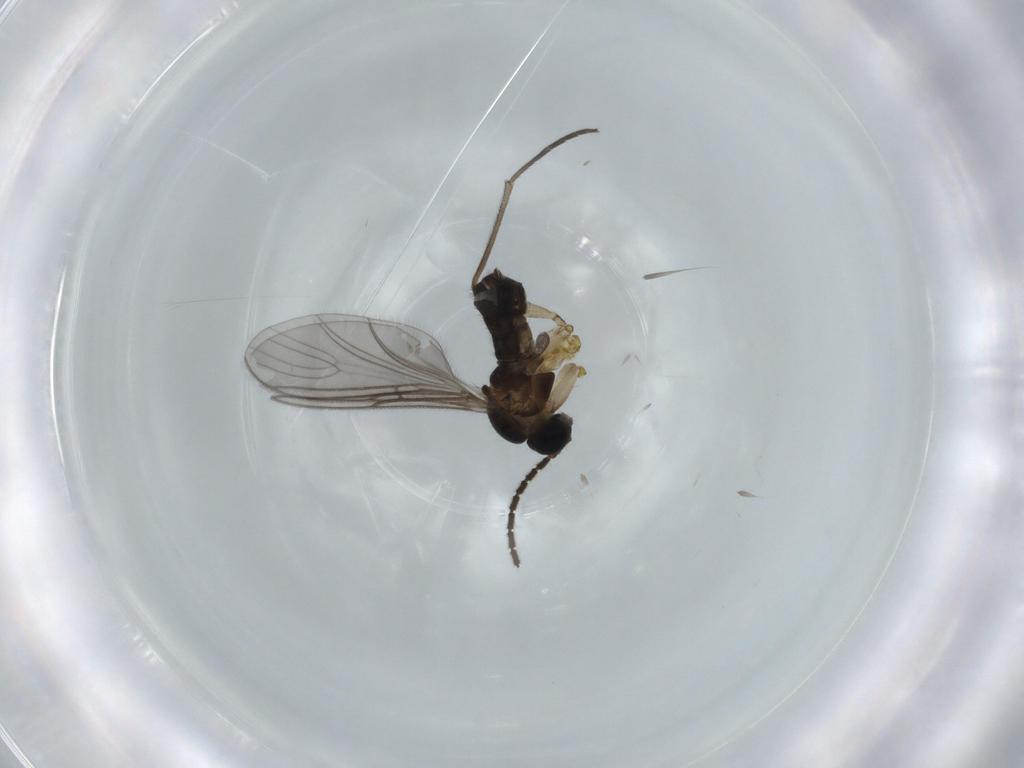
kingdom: Animalia
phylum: Arthropoda
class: Insecta
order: Diptera
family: Sciaridae
